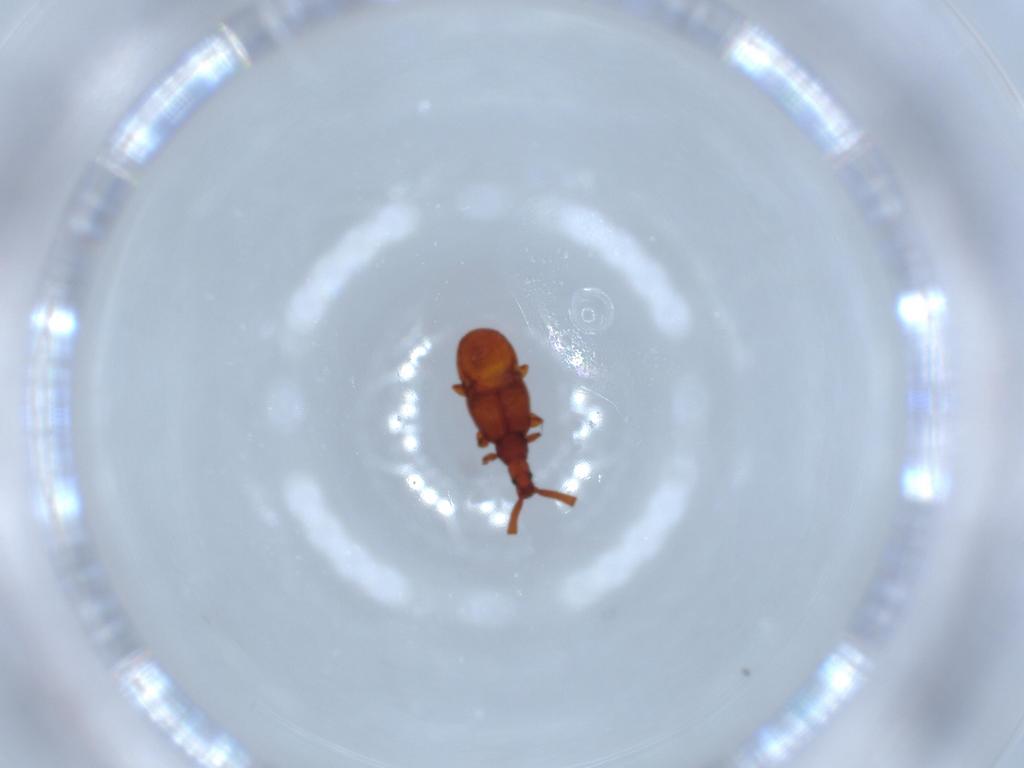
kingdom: Animalia
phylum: Arthropoda
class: Insecta
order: Coleoptera
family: Staphylinidae
